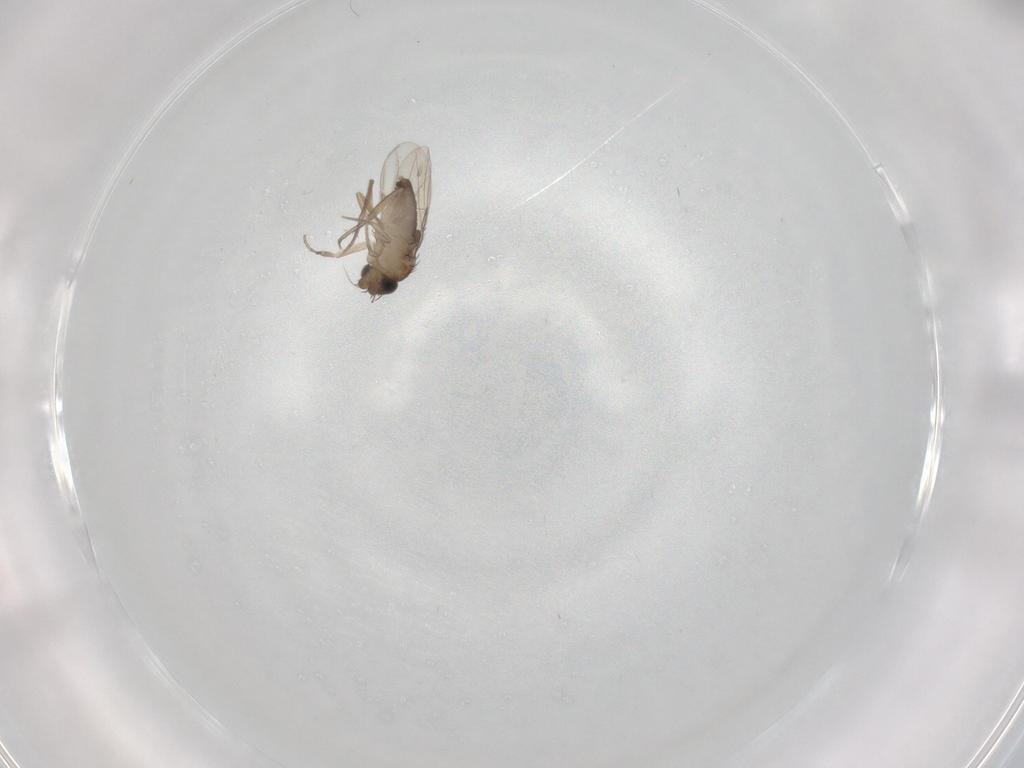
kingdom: Animalia
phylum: Arthropoda
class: Insecta
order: Diptera
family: Phoridae
